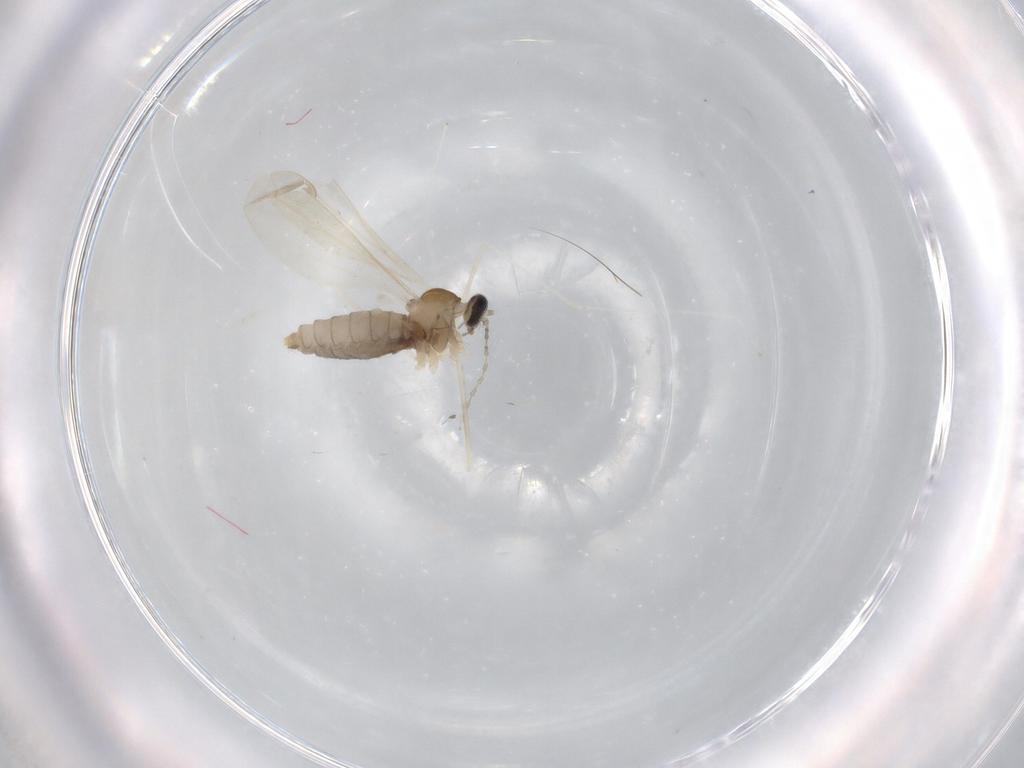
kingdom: Animalia
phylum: Arthropoda
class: Insecta
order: Diptera
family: Cecidomyiidae
